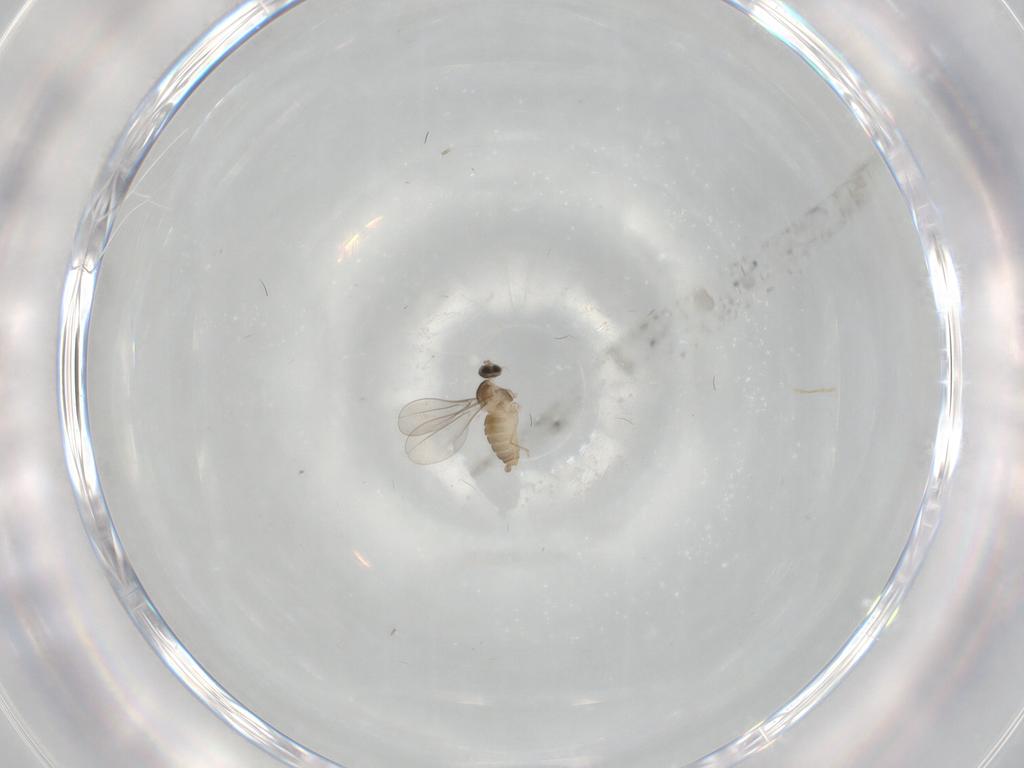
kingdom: Animalia
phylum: Arthropoda
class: Insecta
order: Diptera
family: Cecidomyiidae
